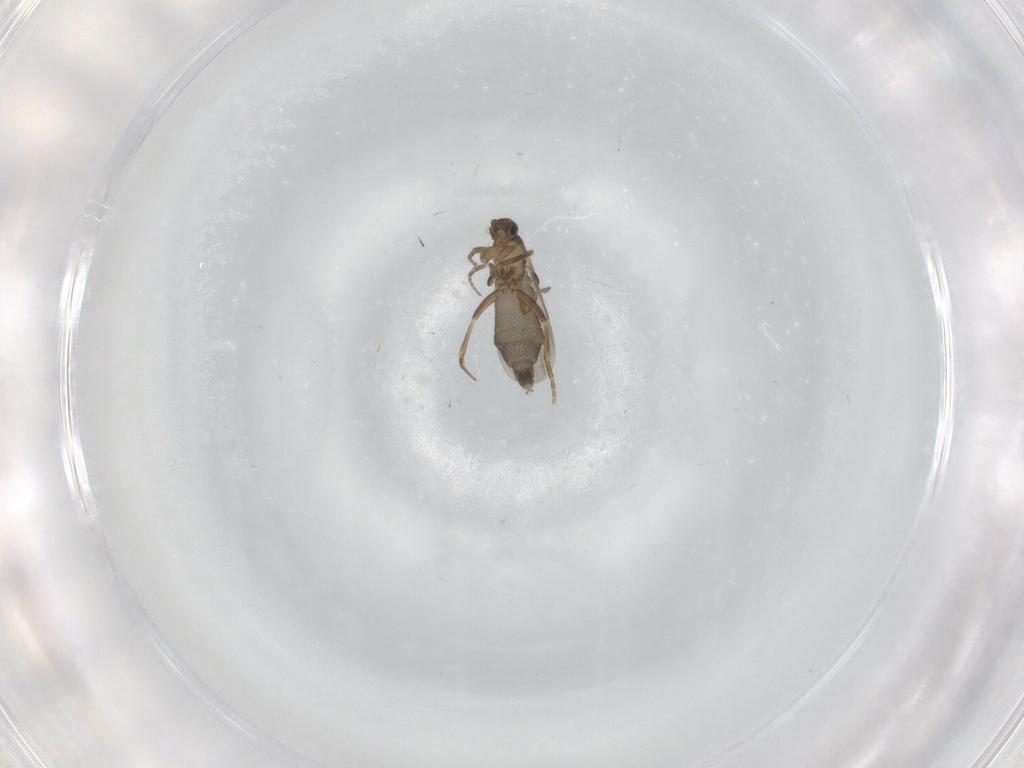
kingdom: Animalia
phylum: Arthropoda
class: Insecta
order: Diptera
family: Phoridae
